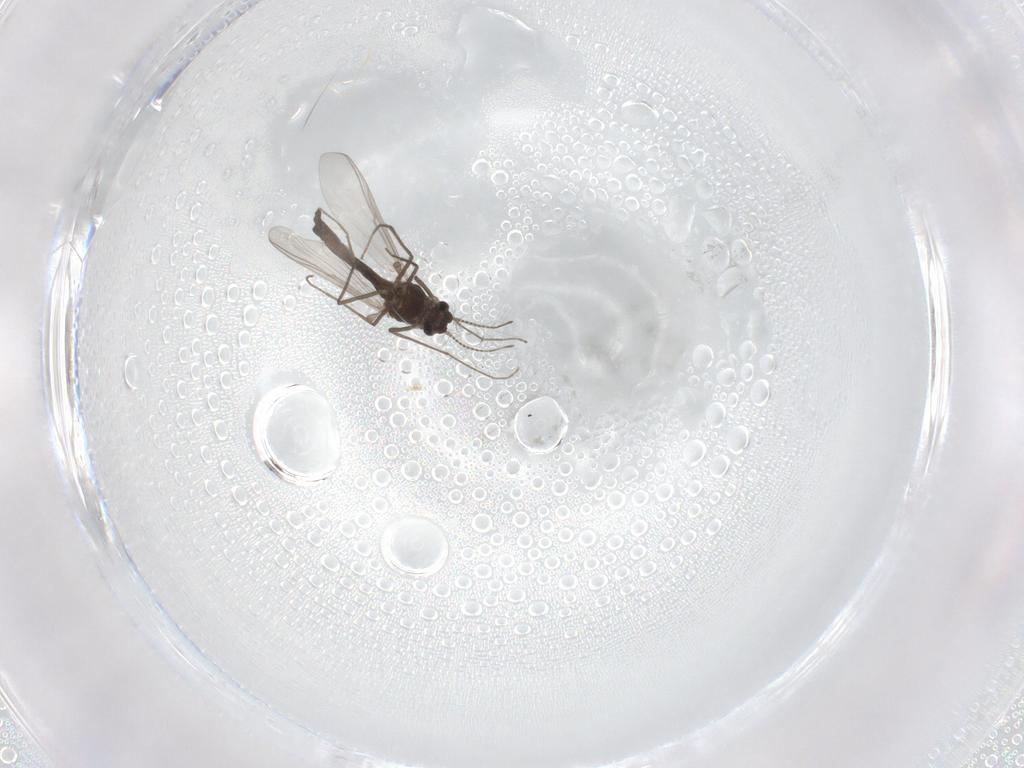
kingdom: Animalia
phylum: Arthropoda
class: Insecta
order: Diptera
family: Chironomidae
